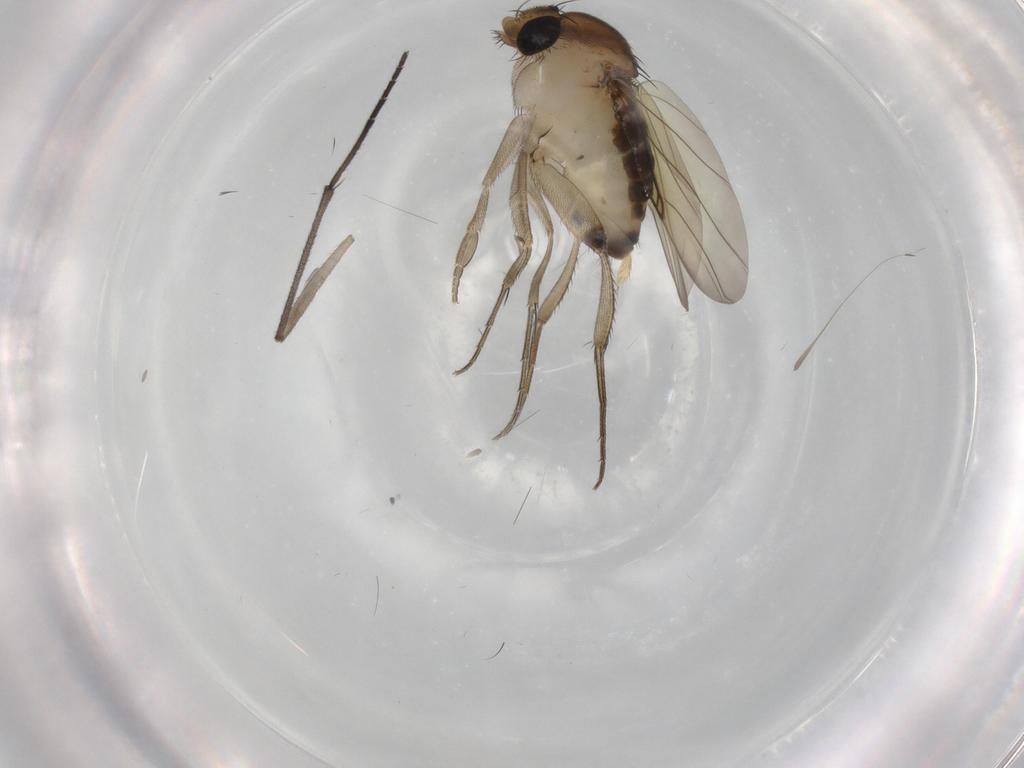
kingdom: Animalia
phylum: Arthropoda
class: Insecta
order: Diptera
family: Phoridae
